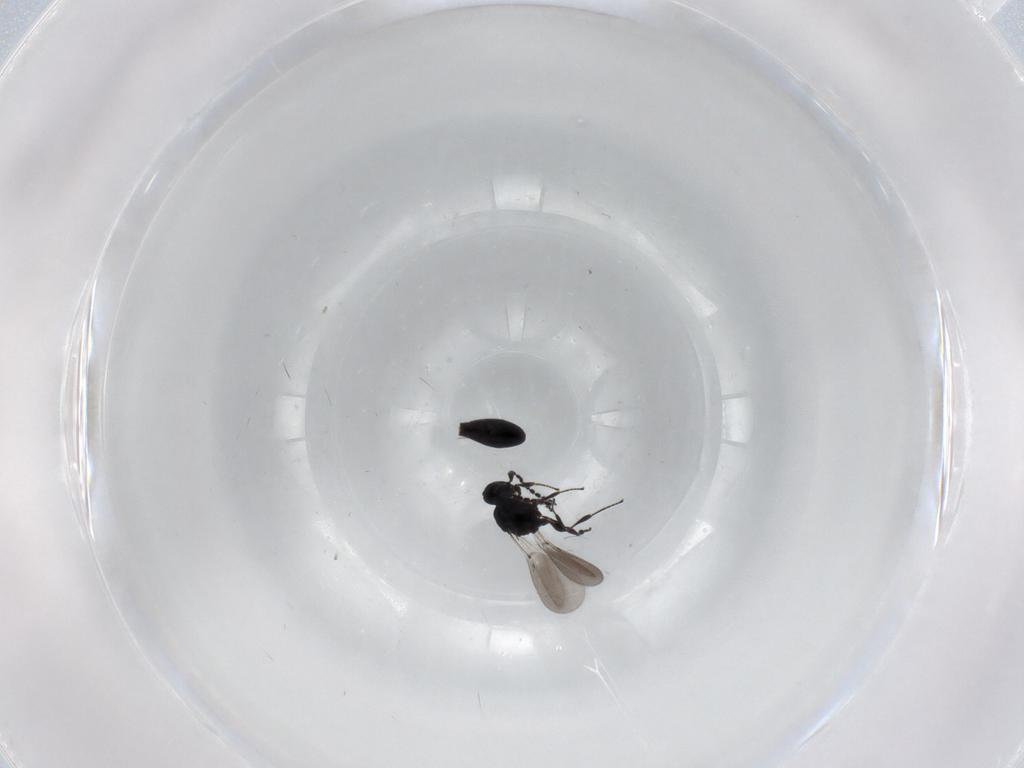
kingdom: Animalia
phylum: Arthropoda
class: Insecta
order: Hymenoptera
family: Platygastridae
